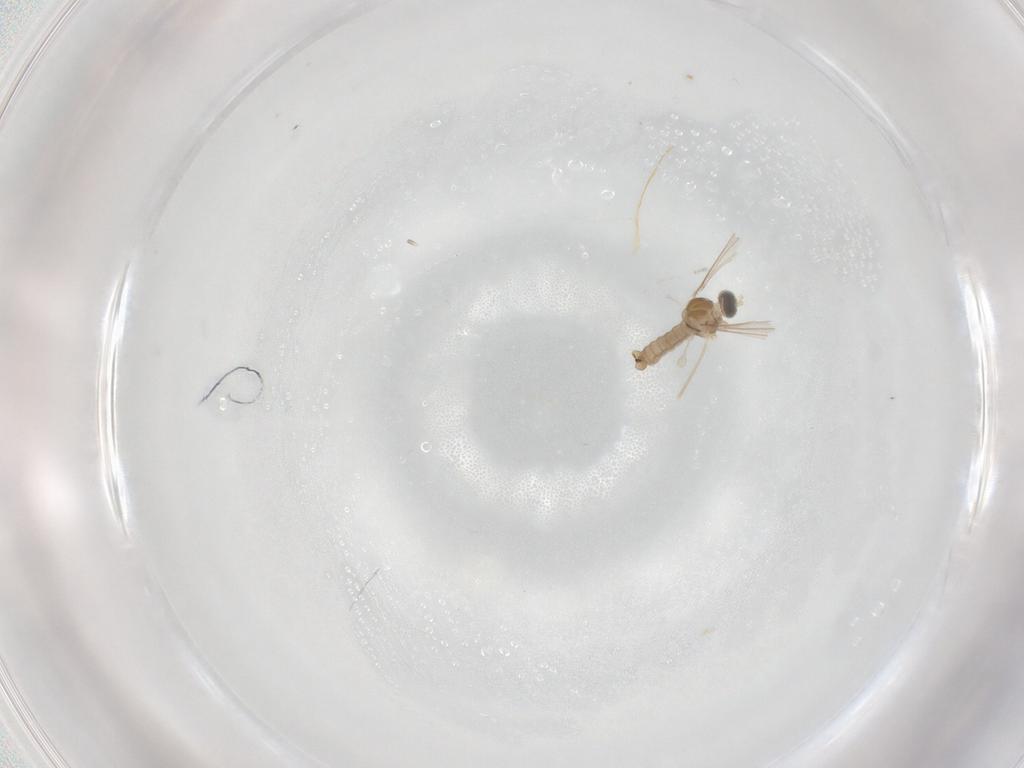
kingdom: Animalia
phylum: Arthropoda
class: Insecta
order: Diptera
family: Cecidomyiidae
